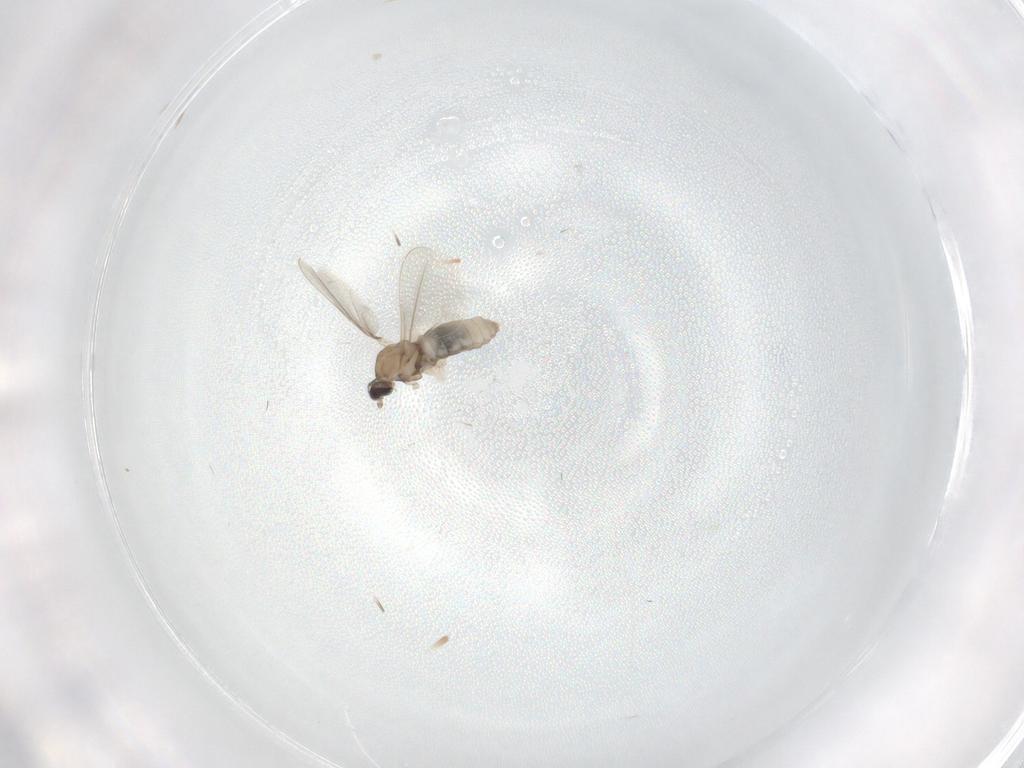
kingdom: Animalia
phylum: Arthropoda
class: Insecta
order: Diptera
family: Cecidomyiidae
